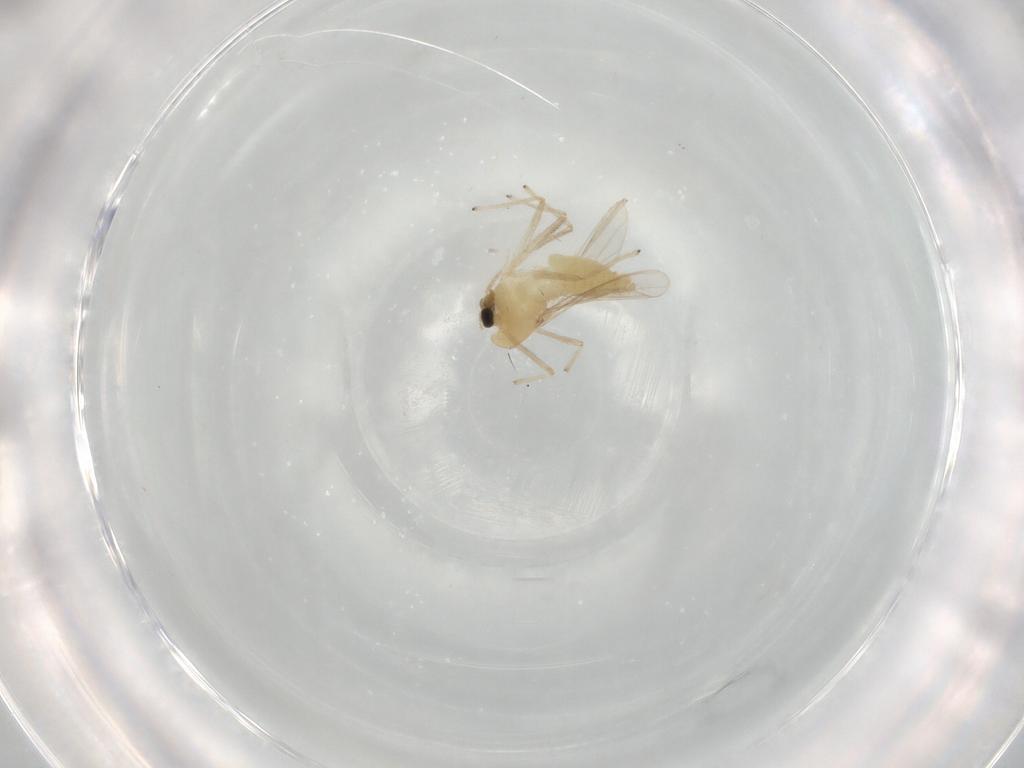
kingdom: Animalia
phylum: Arthropoda
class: Insecta
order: Diptera
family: Chironomidae
